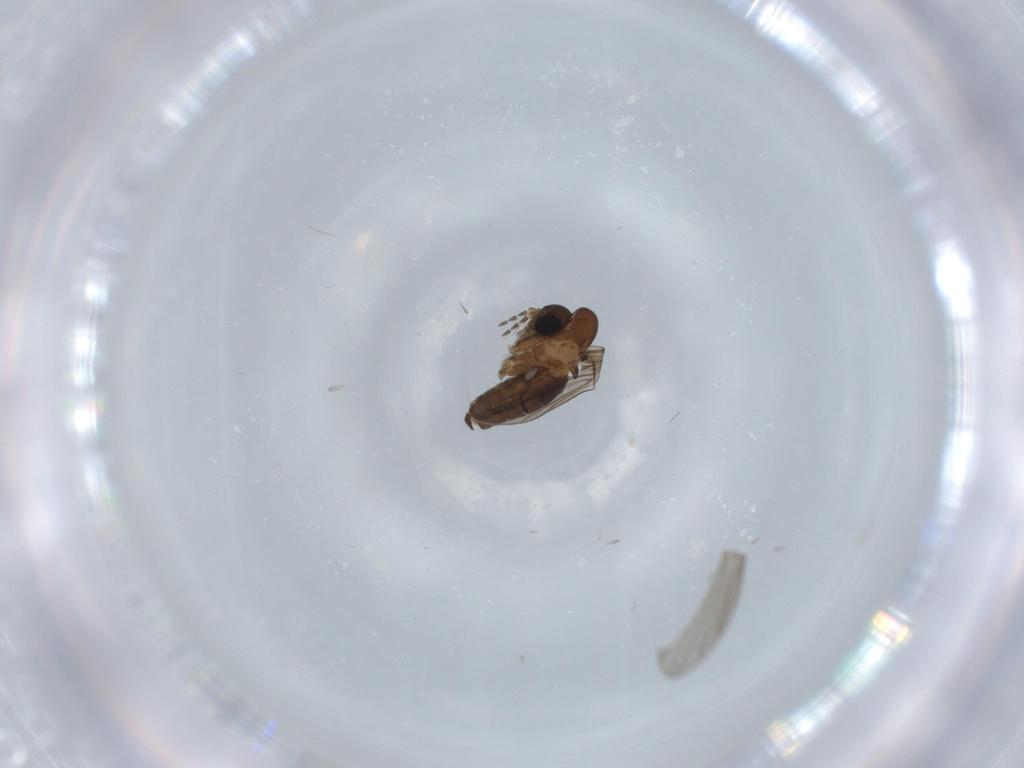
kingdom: Animalia
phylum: Arthropoda
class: Insecta
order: Diptera
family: Psychodidae
